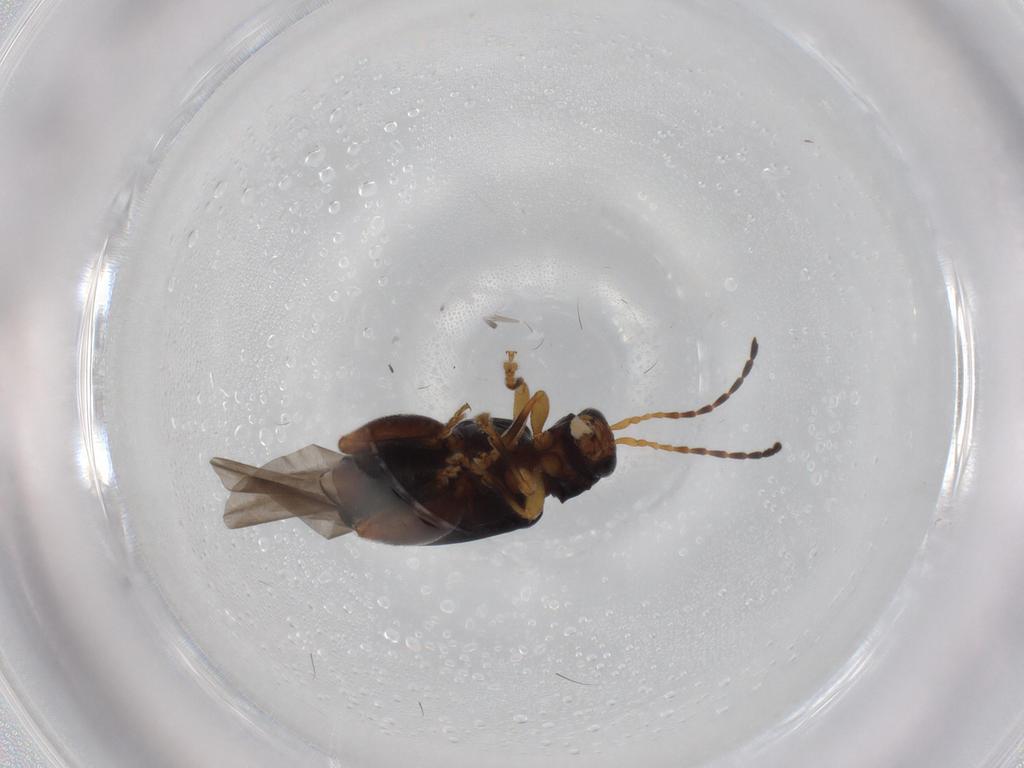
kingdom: Animalia
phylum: Arthropoda
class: Insecta
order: Coleoptera
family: Chrysomelidae
